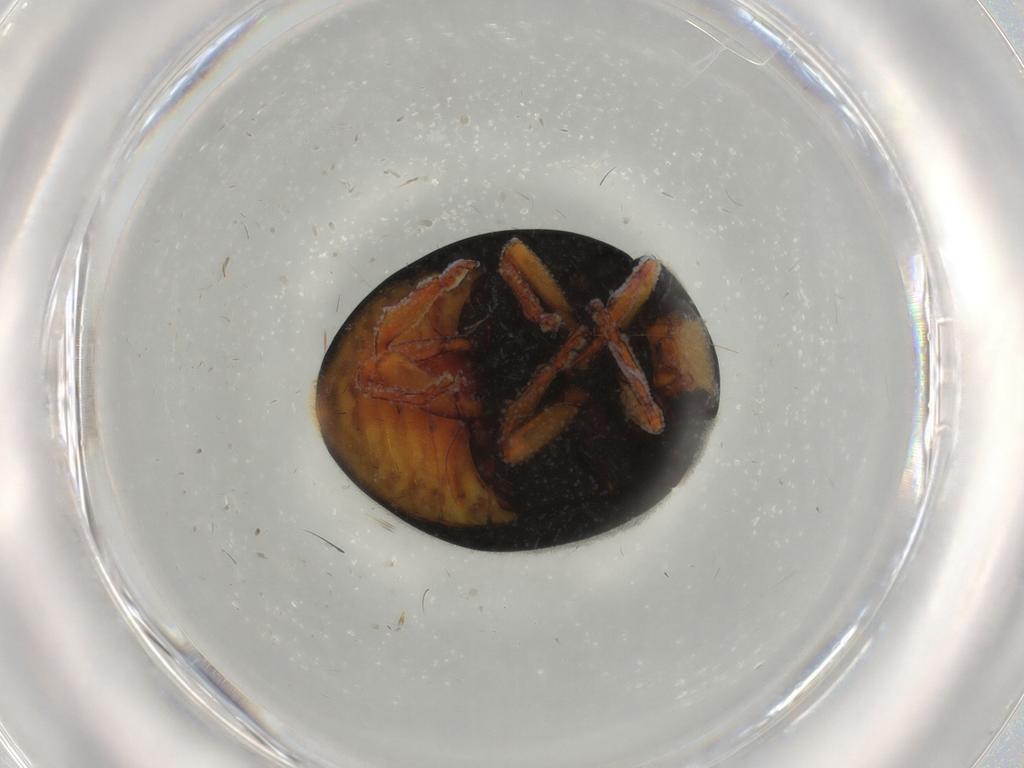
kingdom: Animalia
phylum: Arthropoda
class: Insecta
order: Coleoptera
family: Coccinellidae
